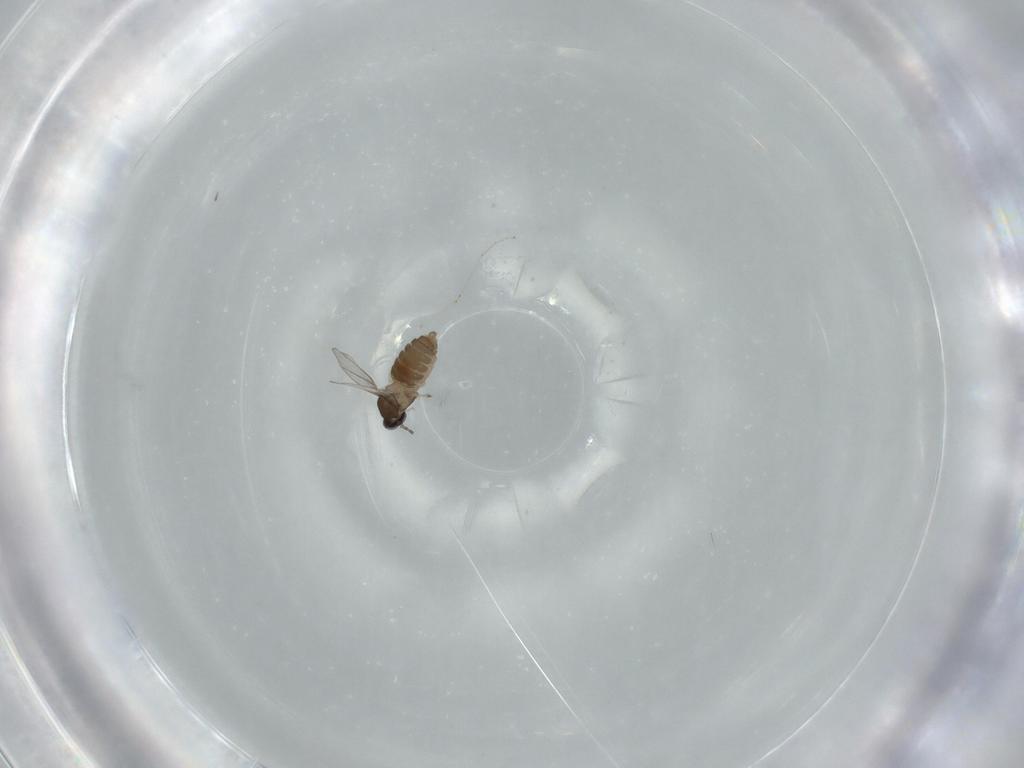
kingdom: Animalia
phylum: Arthropoda
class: Insecta
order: Diptera
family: Cecidomyiidae
